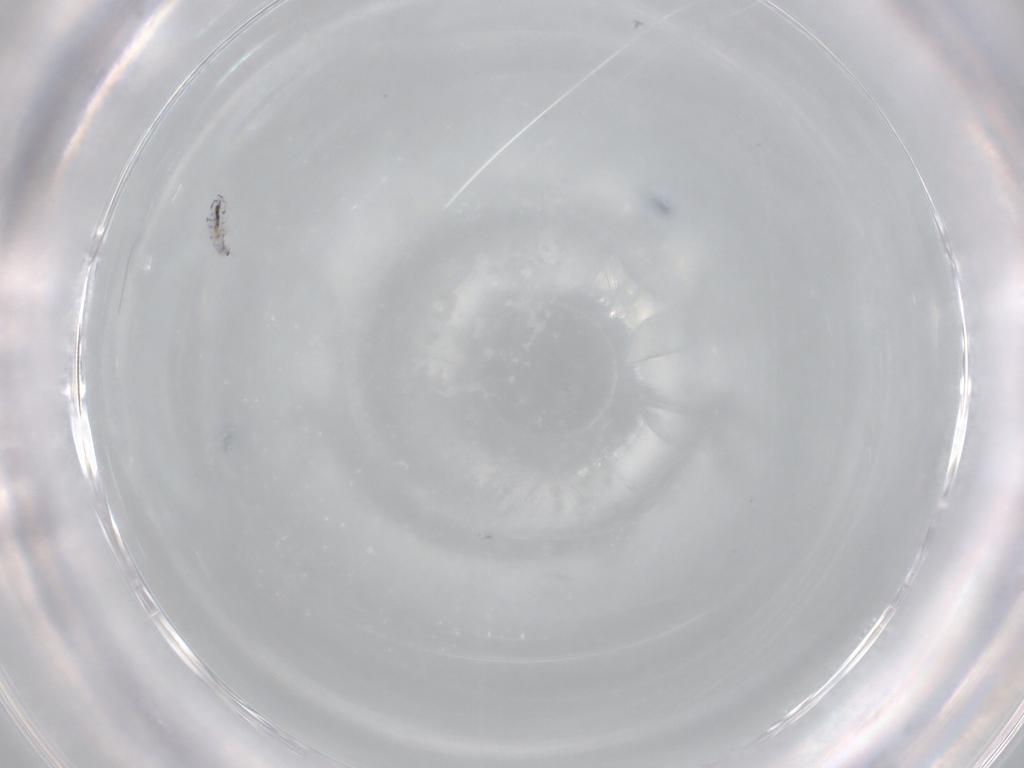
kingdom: Animalia
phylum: Arthropoda
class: Collembola
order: Entomobryomorpha
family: Entomobryidae
